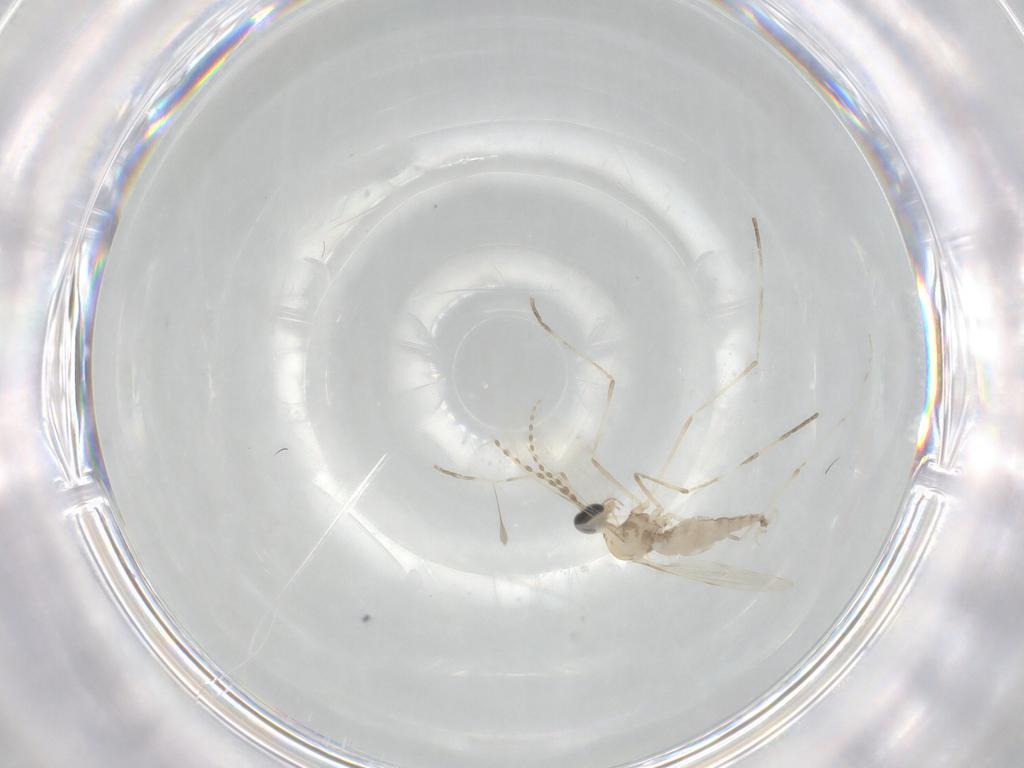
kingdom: Animalia
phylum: Arthropoda
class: Insecta
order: Diptera
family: Cecidomyiidae
